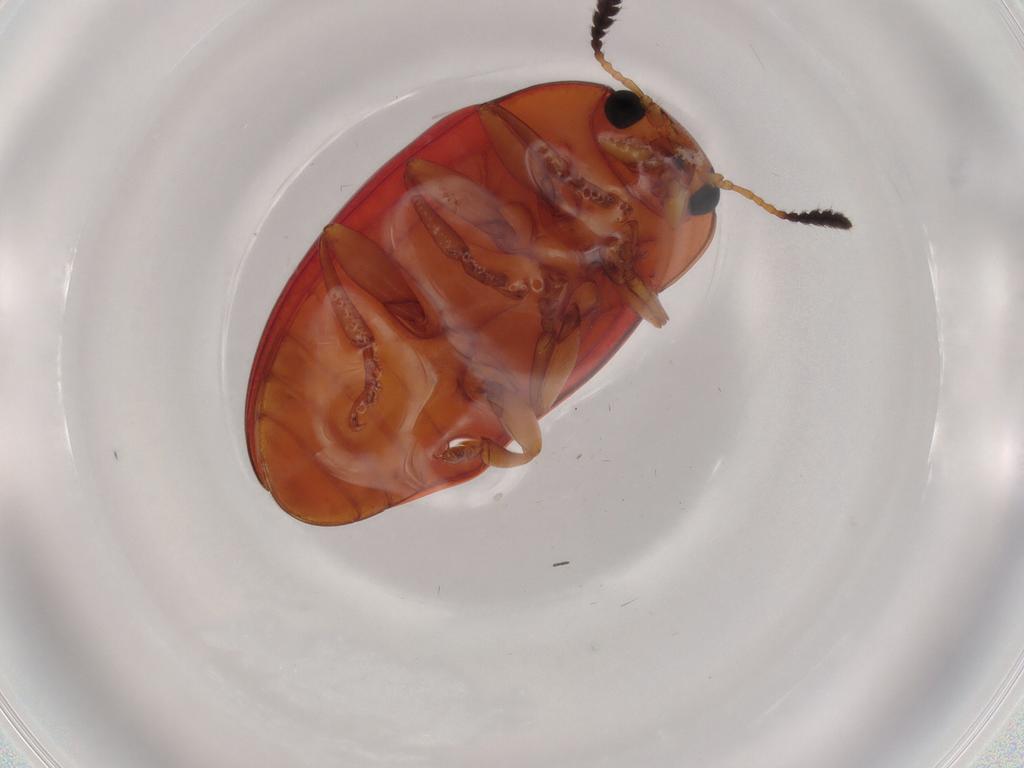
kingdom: Animalia
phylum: Arthropoda
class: Insecta
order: Coleoptera
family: Erotylidae
